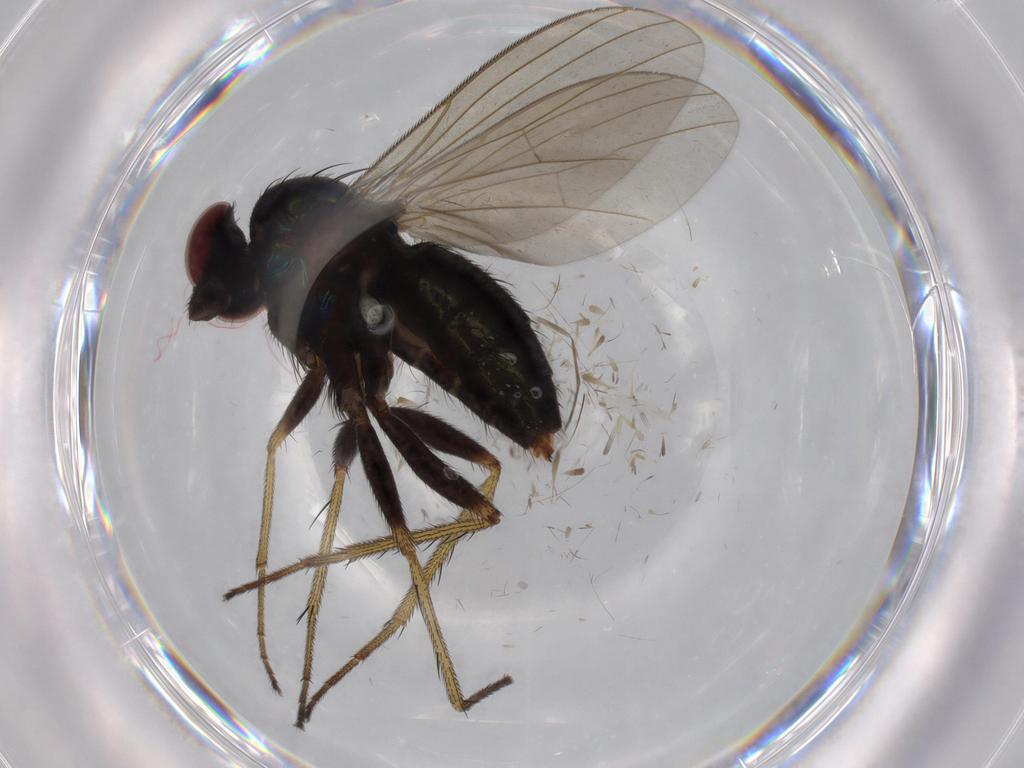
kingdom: Animalia
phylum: Arthropoda
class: Insecta
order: Diptera
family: Dolichopodidae
